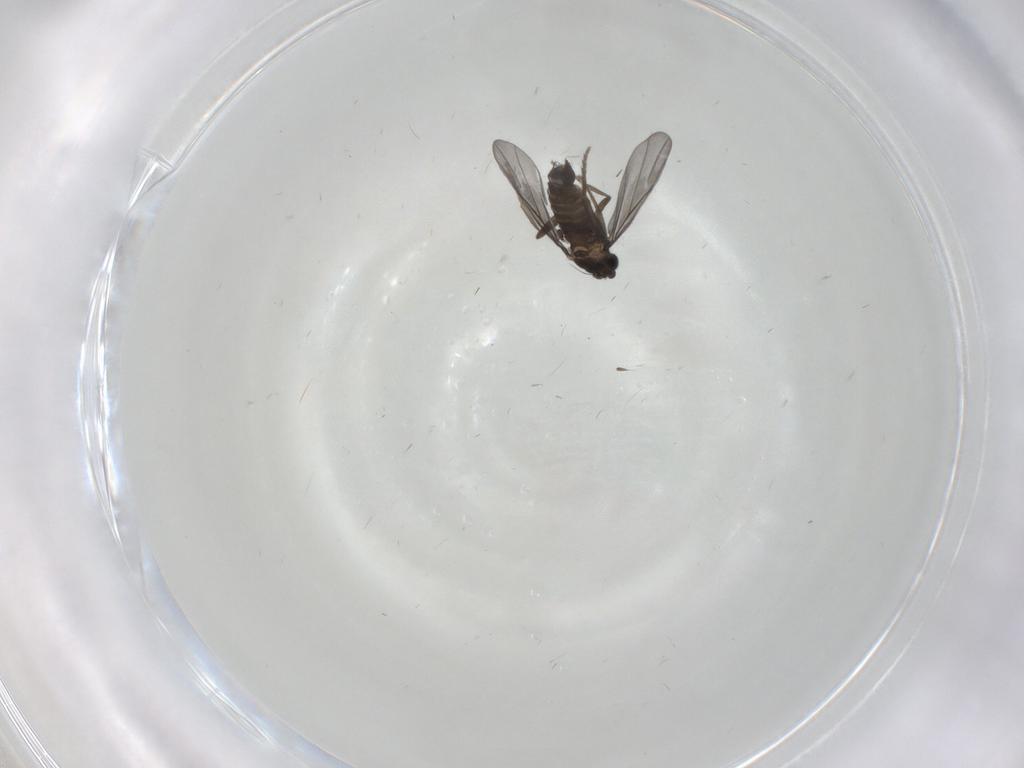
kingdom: Animalia
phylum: Arthropoda
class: Insecta
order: Diptera
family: Phoridae
